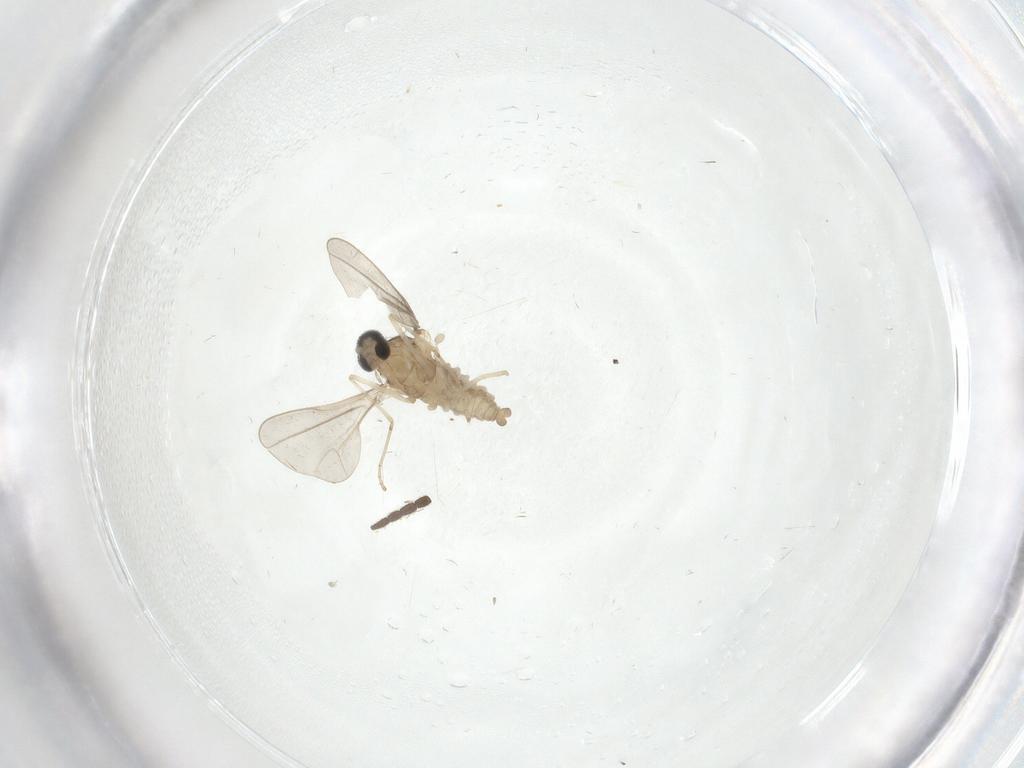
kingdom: Animalia
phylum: Arthropoda
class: Insecta
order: Diptera
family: Cecidomyiidae
